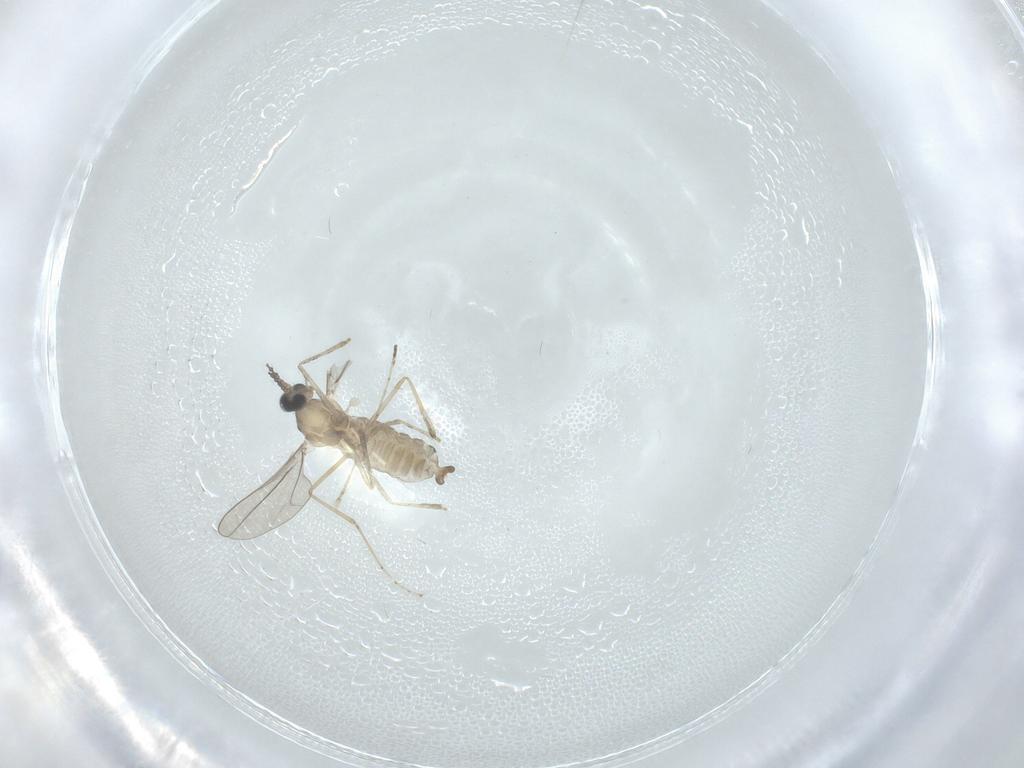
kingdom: Animalia
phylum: Arthropoda
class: Insecta
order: Diptera
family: Cecidomyiidae
